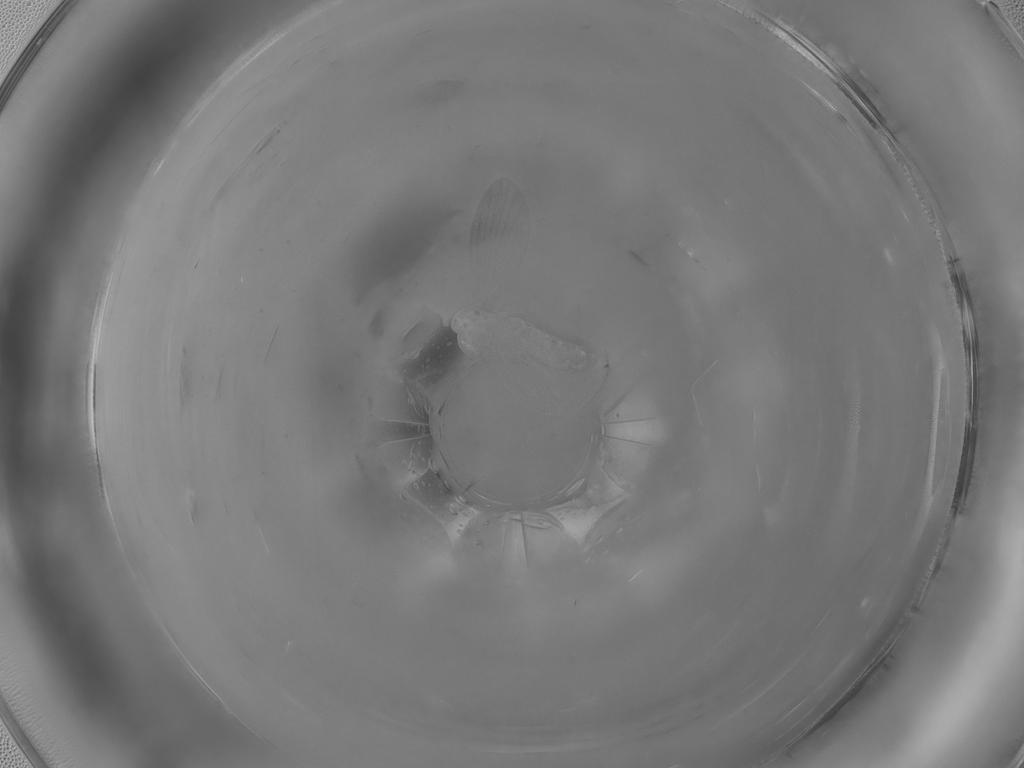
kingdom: Animalia
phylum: Arthropoda
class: Insecta
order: Diptera
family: Cecidomyiidae
